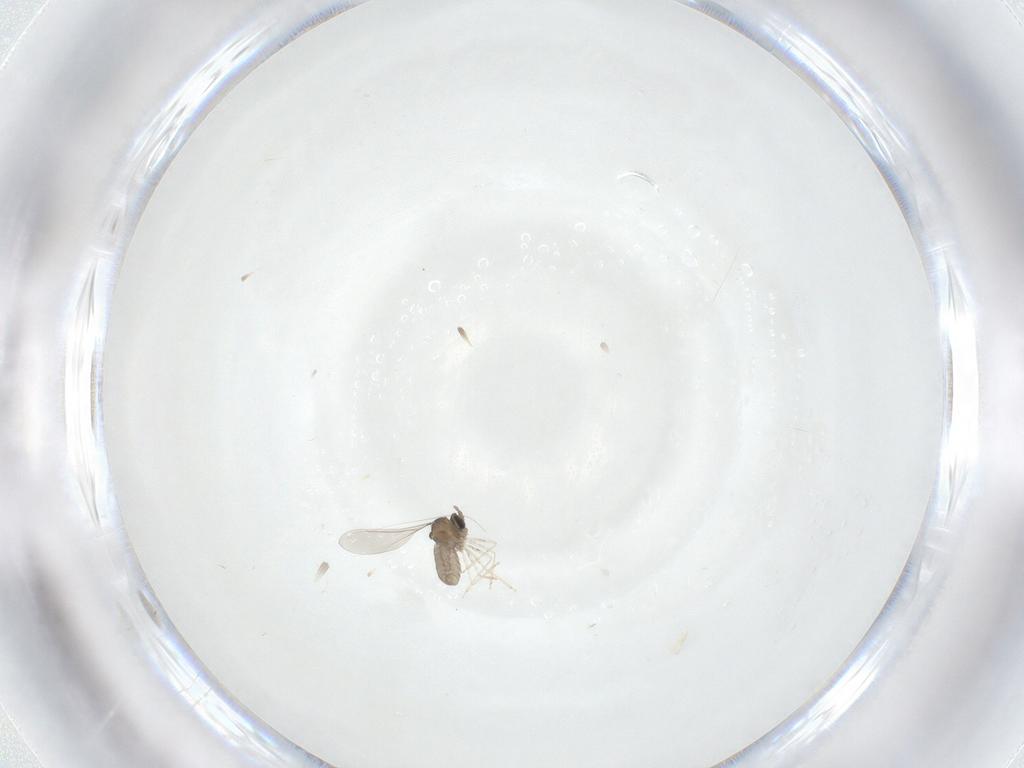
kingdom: Animalia
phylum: Arthropoda
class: Insecta
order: Diptera
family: Cecidomyiidae
